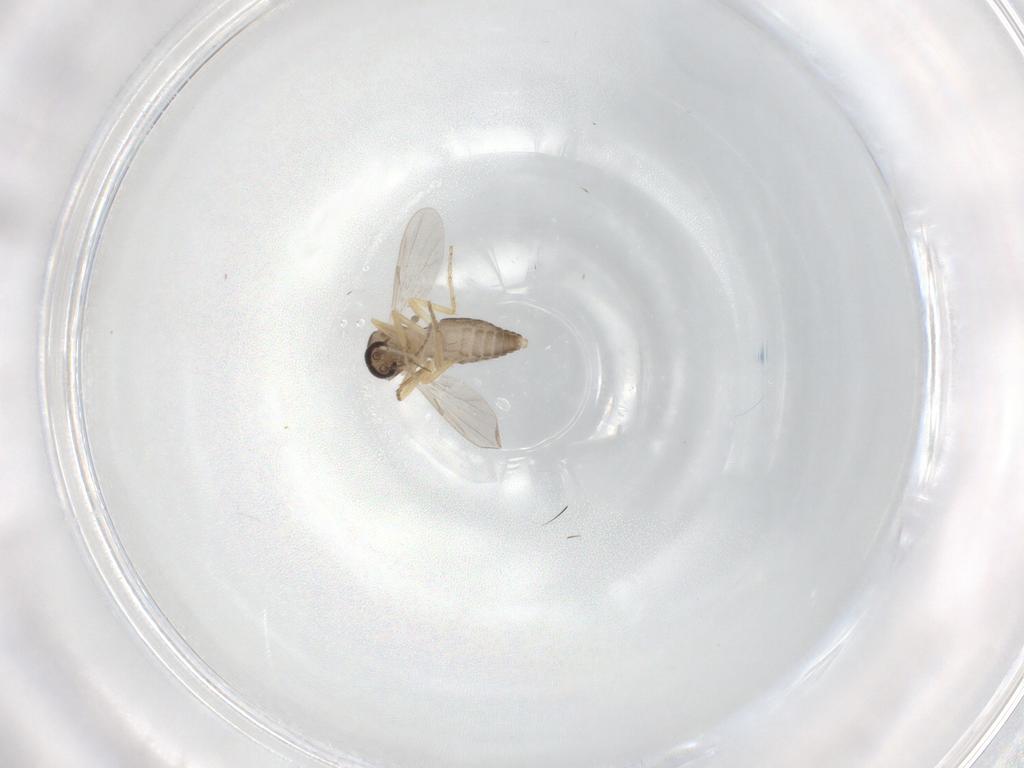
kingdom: Animalia
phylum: Arthropoda
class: Insecta
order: Diptera
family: Ceratopogonidae
